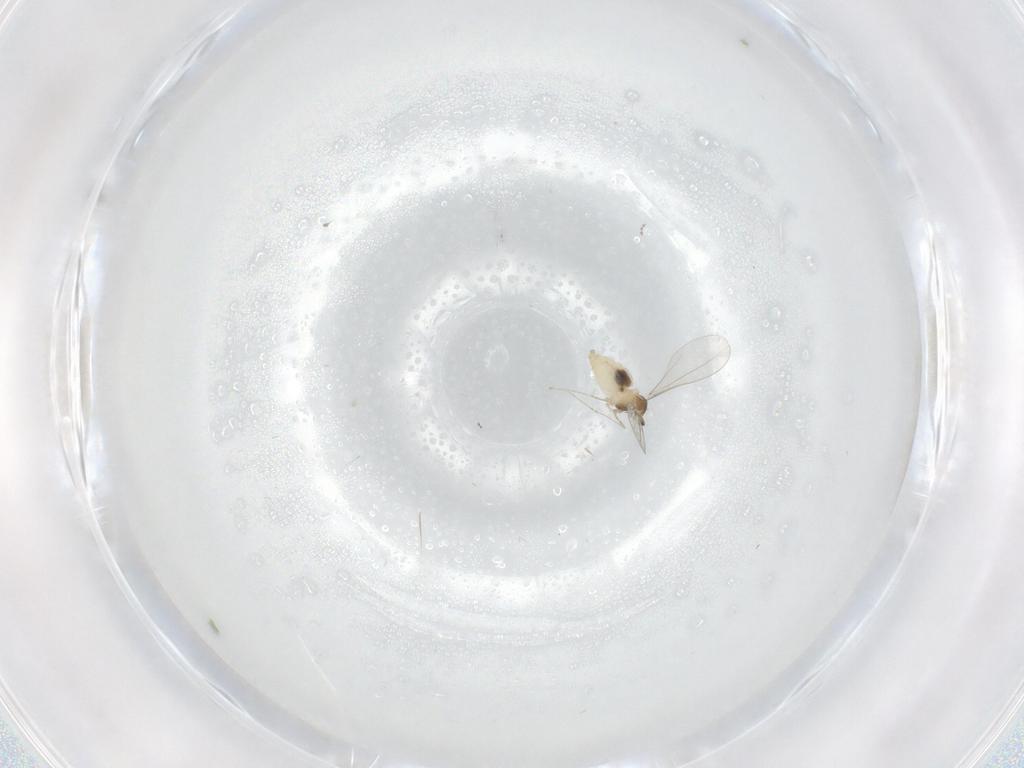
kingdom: Animalia
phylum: Arthropoda
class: Insecta
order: Diptera
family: Cecidomyiidae
